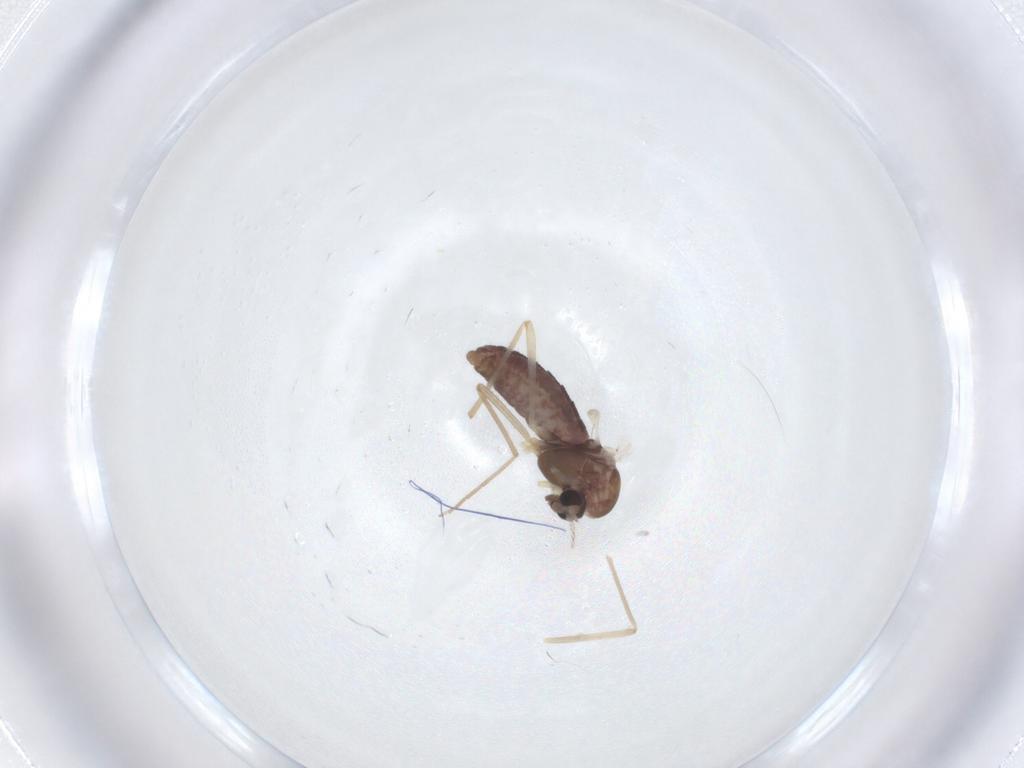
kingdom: Animalia
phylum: Arthropoda
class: Insecta
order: Diptera
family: Chironomidae
